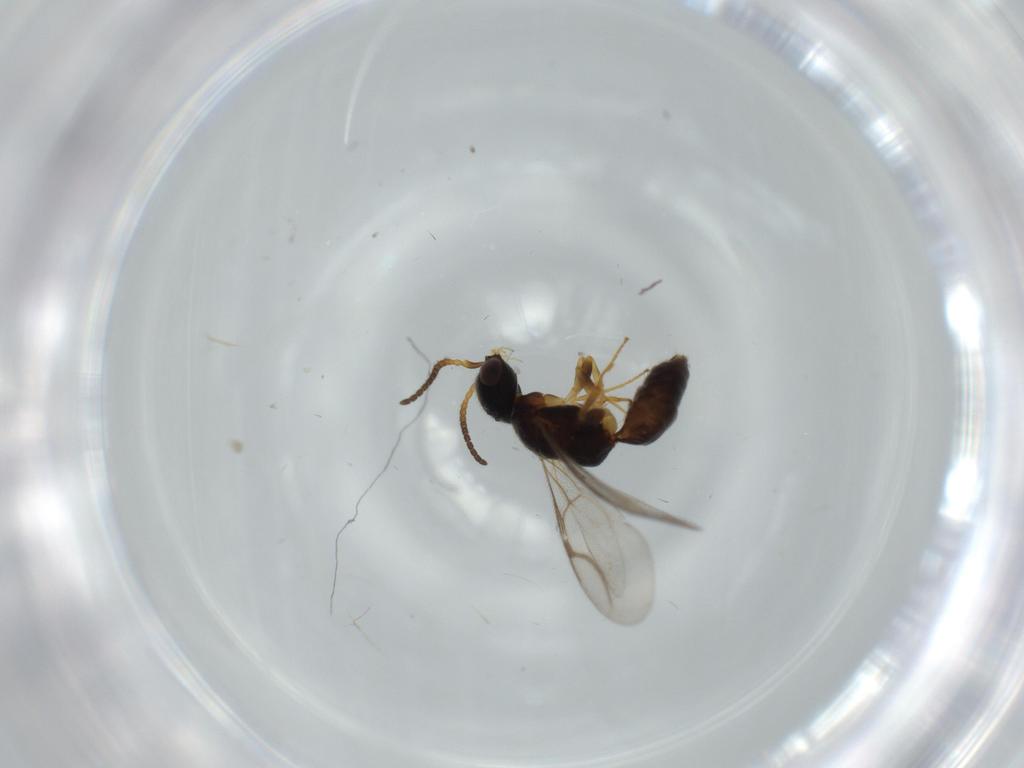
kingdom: Animalia
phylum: Arthropoda
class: Insecta
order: Hymenoptera
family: Bethylidae
